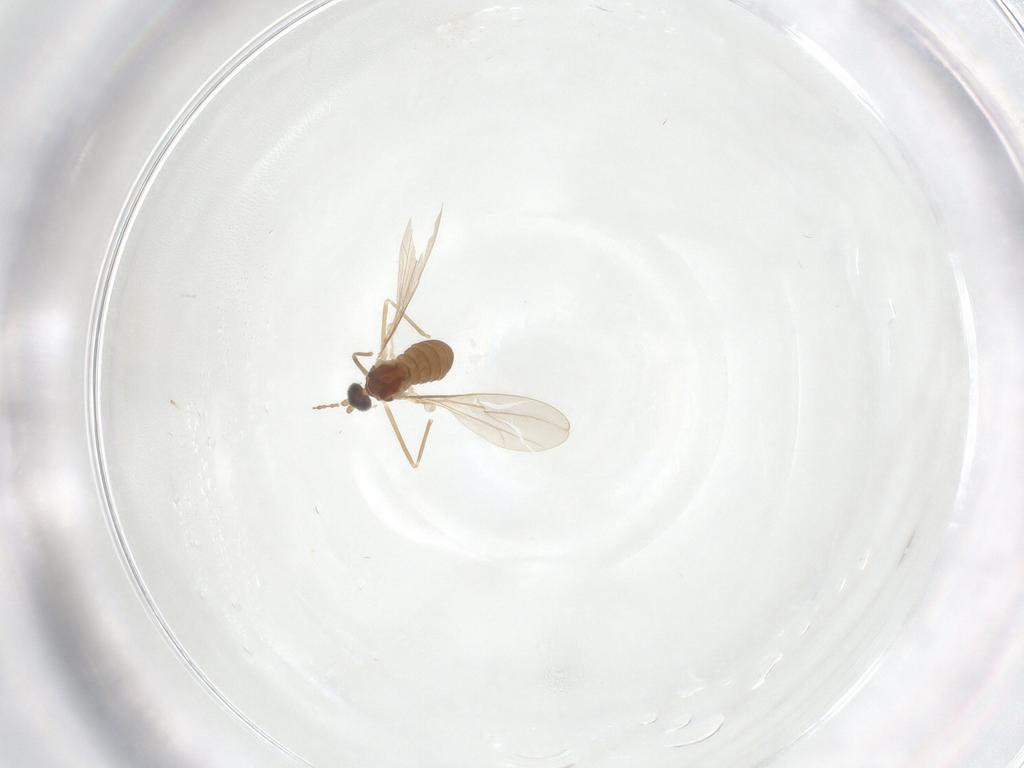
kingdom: Animalia
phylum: Arthropoda
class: Insecta
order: Diptera
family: Cecidomyiidae
